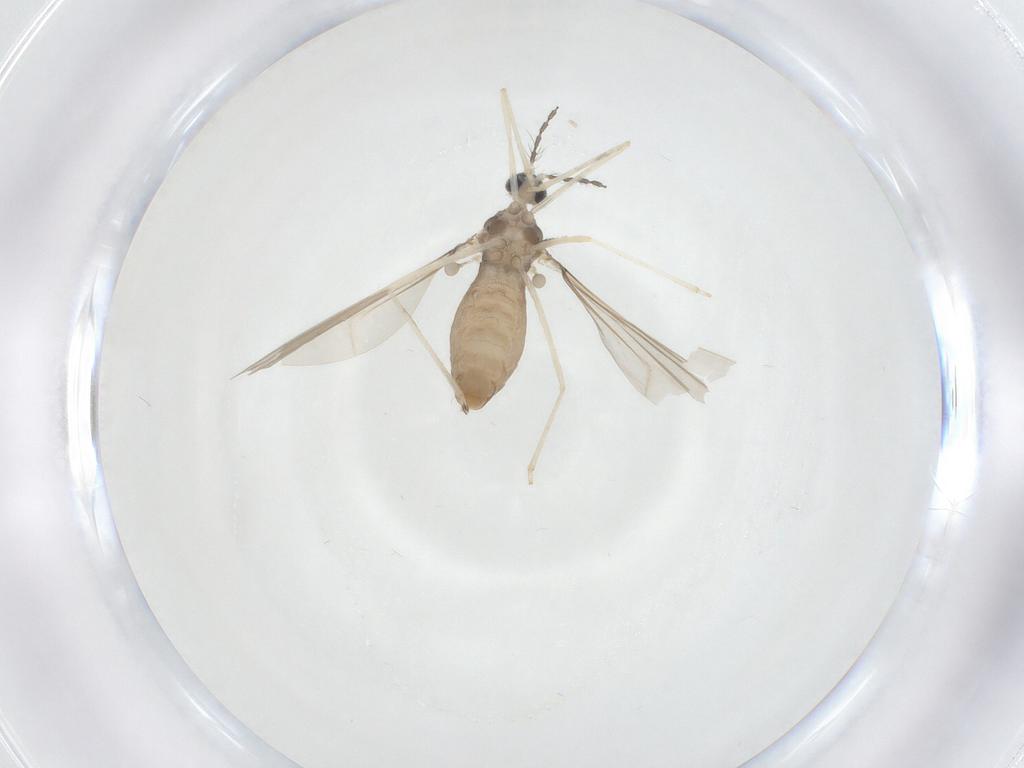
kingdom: Animalia
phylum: Arthropoda
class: Insecta
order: Diptera
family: Cecidomyiidae
